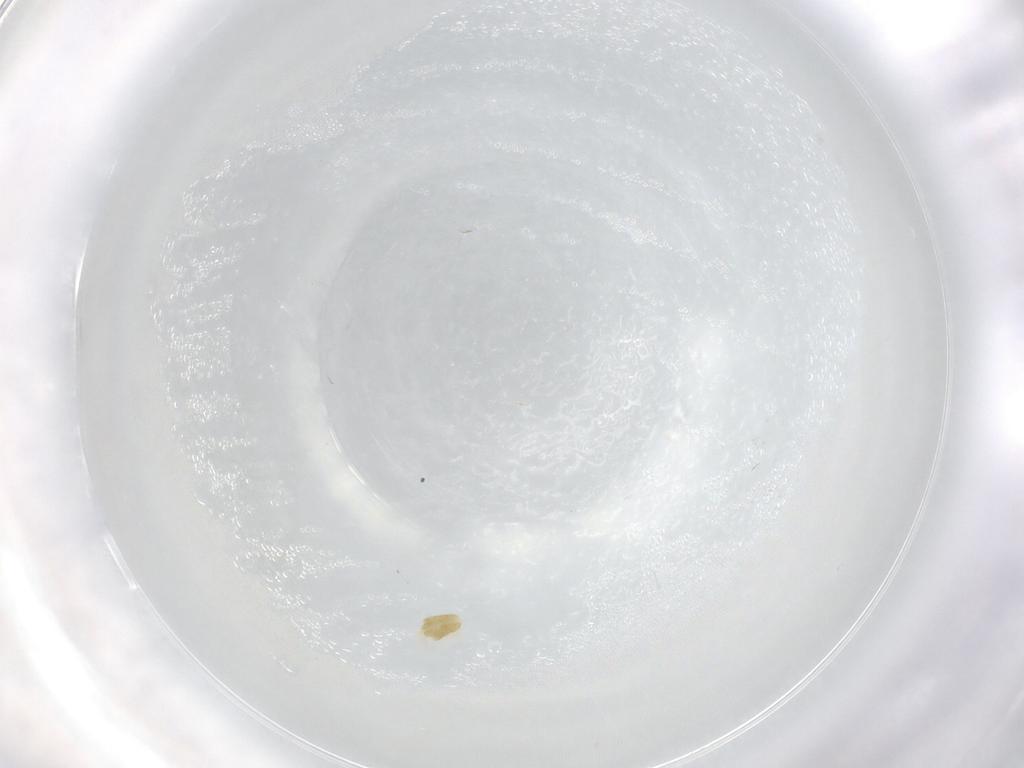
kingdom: Animalia
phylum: Arthropoda
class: Arachnida
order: Trombidiformes
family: Eupodidae
